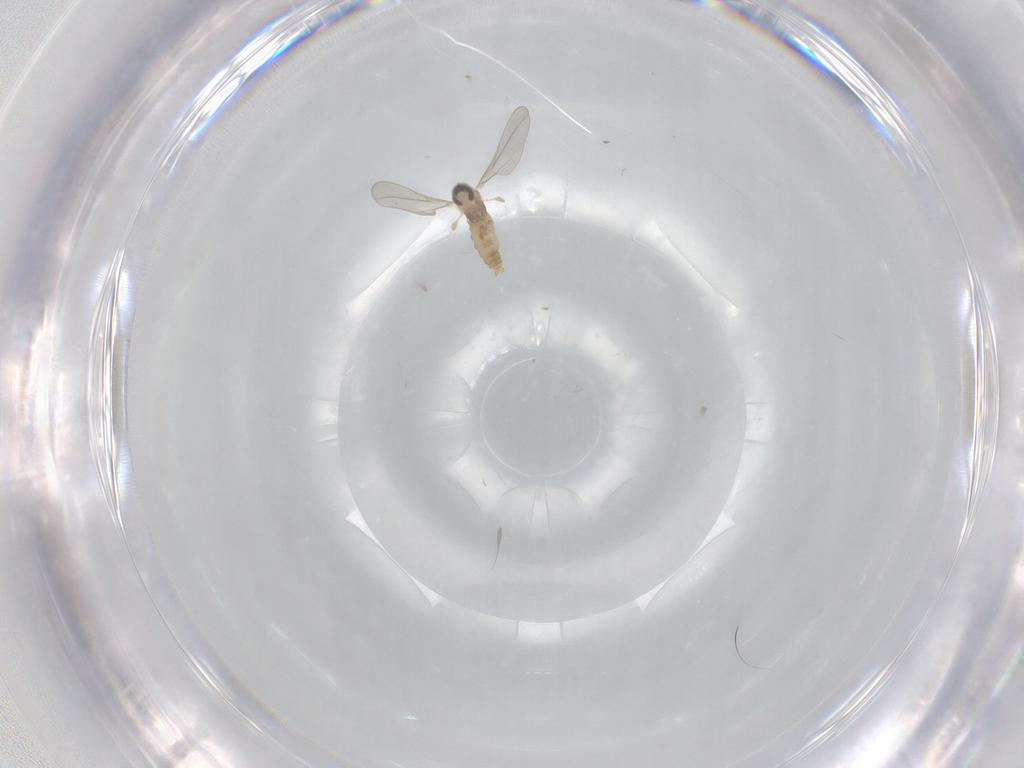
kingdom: Animalia
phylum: Arthropoda
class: Insecta
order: Diptera
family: Cecidomyiidae
